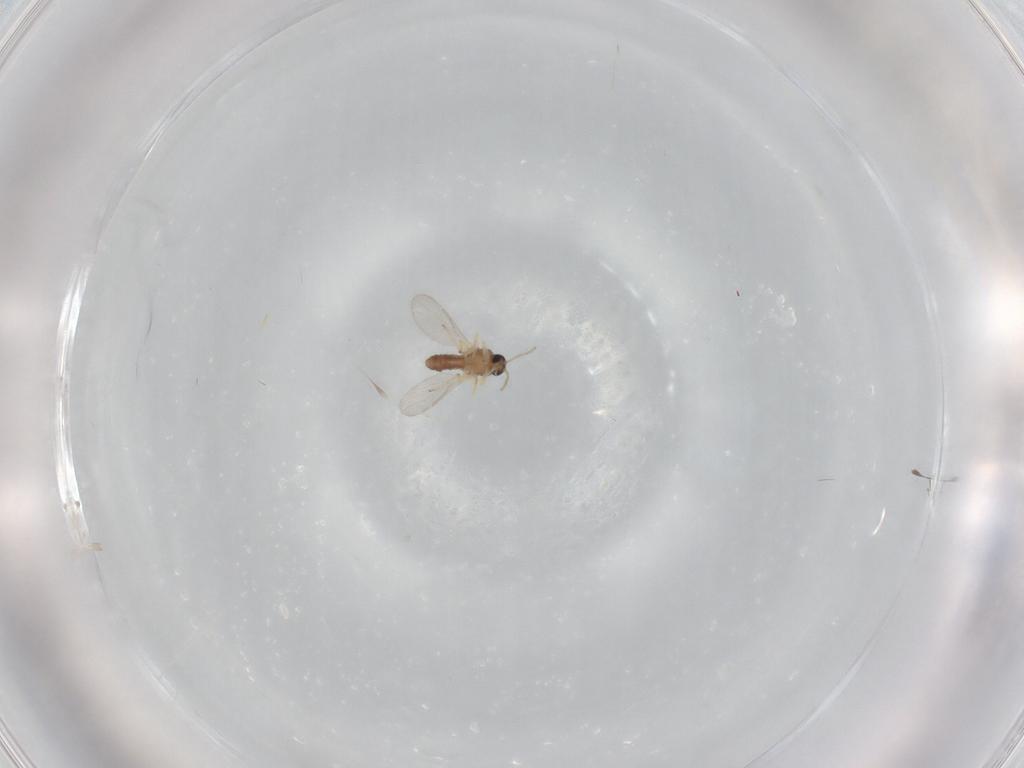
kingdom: Animalia
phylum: Arthropoda
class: Insecta
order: Diptera
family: Ceratopogonidae
